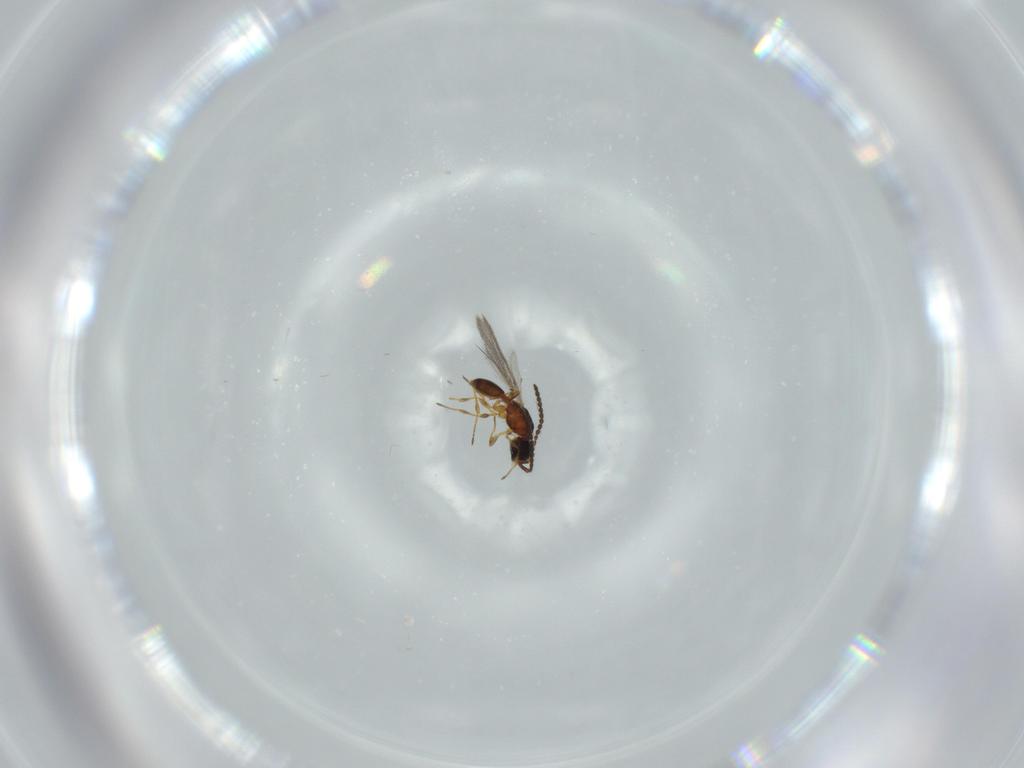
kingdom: Animalia
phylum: Arthropoda
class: Insecta
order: Hymenoptera
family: Diapriidae
